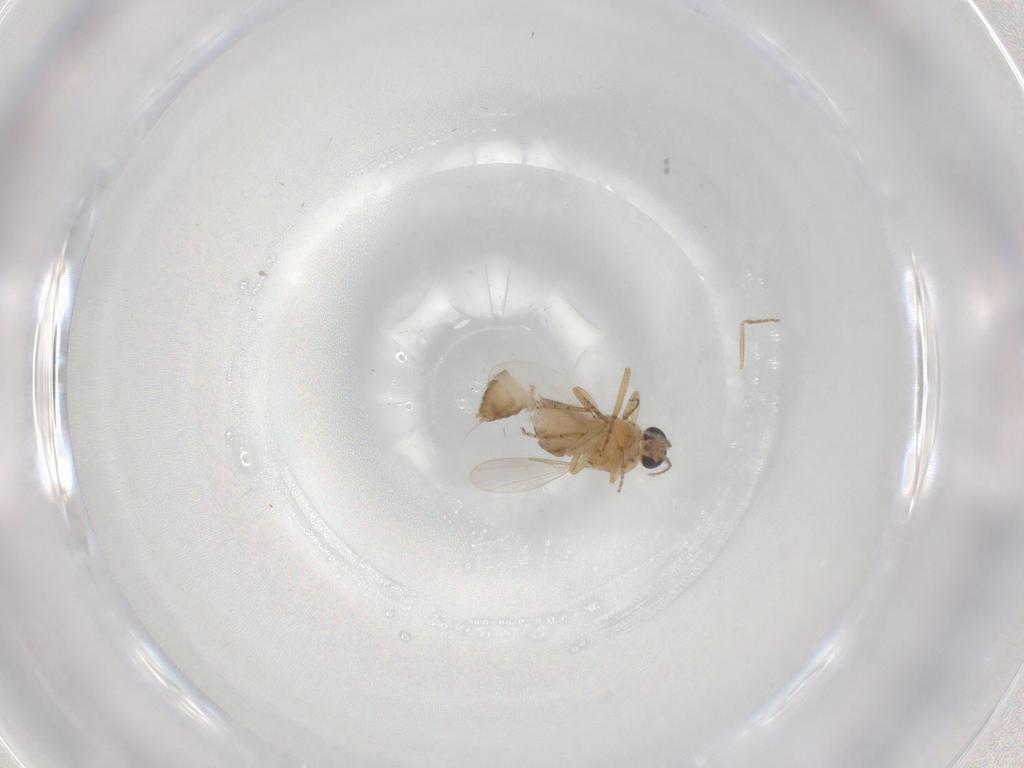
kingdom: Animalia
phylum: Arthropoda
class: Insecta
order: Diptera
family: Ceratopogonidae
